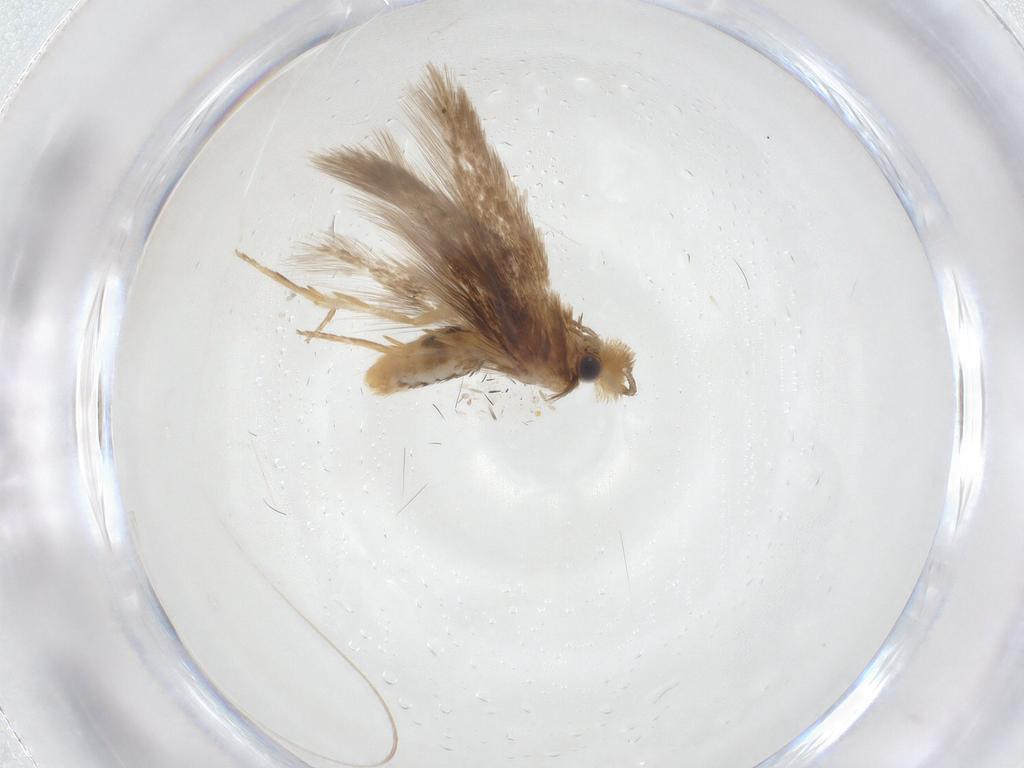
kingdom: Animalia
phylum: Arthropoda
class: Insecta
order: Lepidoptera
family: Nepticulidae
